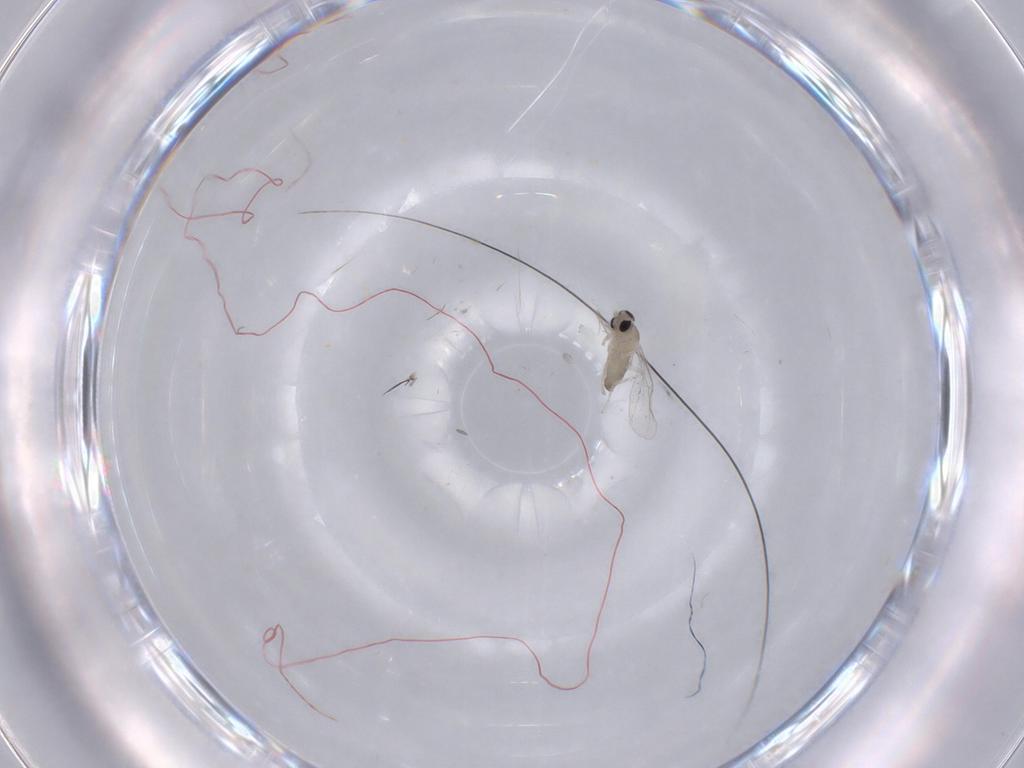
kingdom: Animalia
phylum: Arthropoda
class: Insecta
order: Diptera
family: Cecidomyiidae
